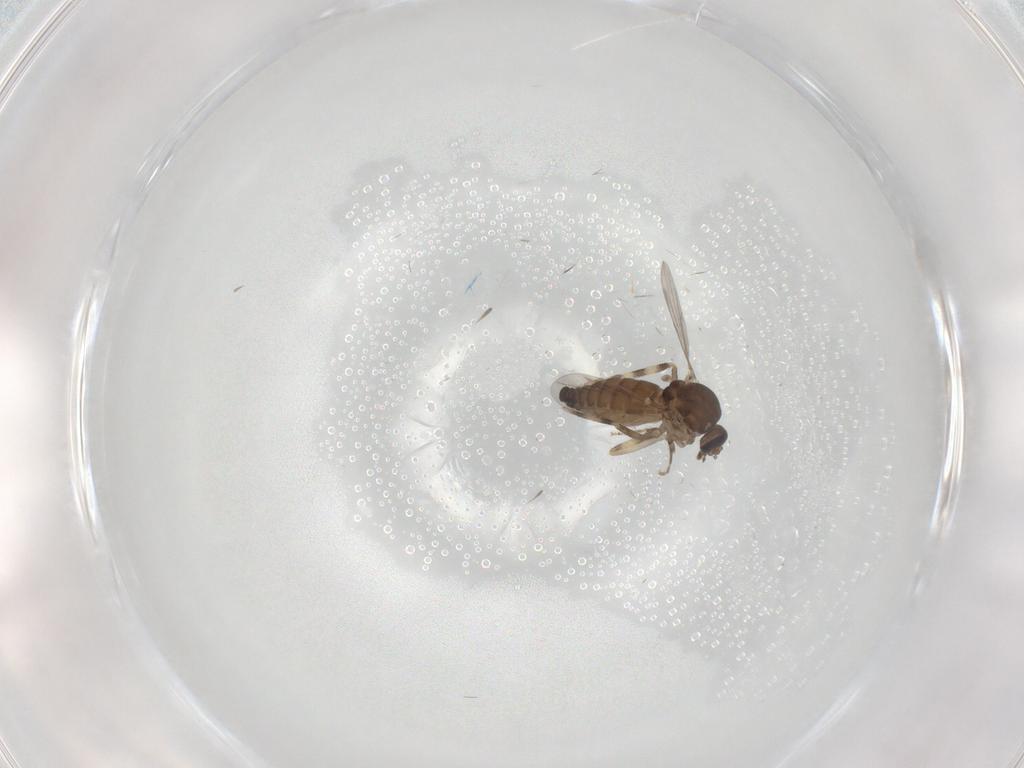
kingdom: Animalia
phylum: Arthropoda
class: Insecta
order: Diptera
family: Ceratopogonidae
